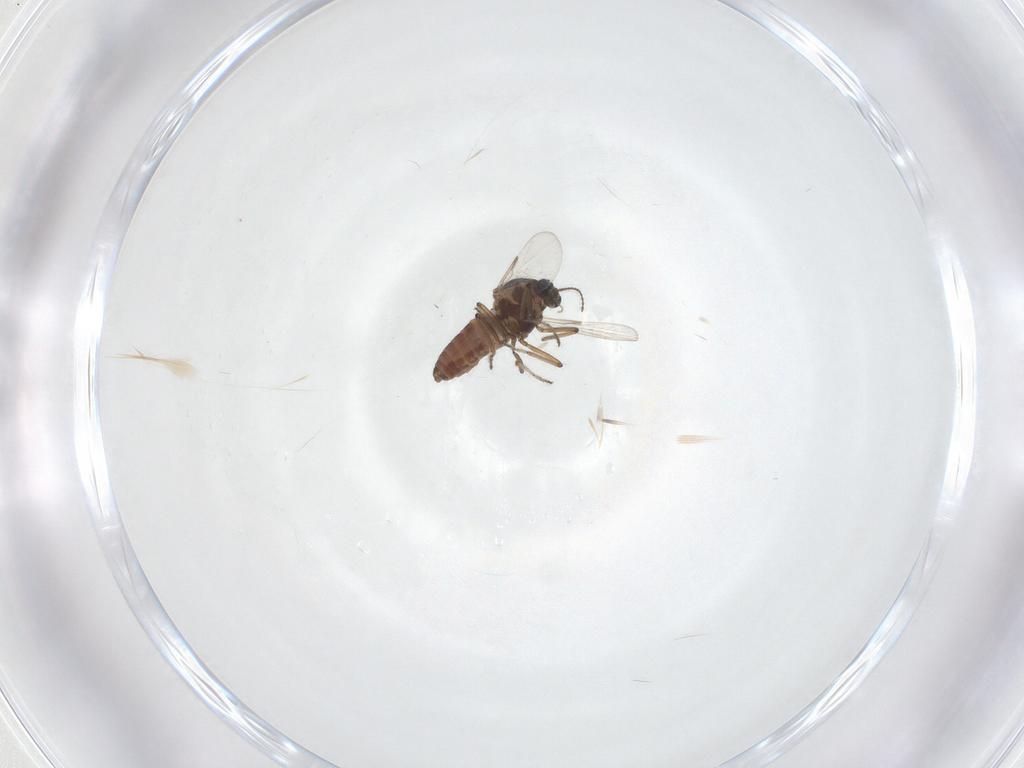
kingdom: Animalia
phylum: Arthropoda
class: Insecta
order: Diptera
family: Ceratopogonidae
